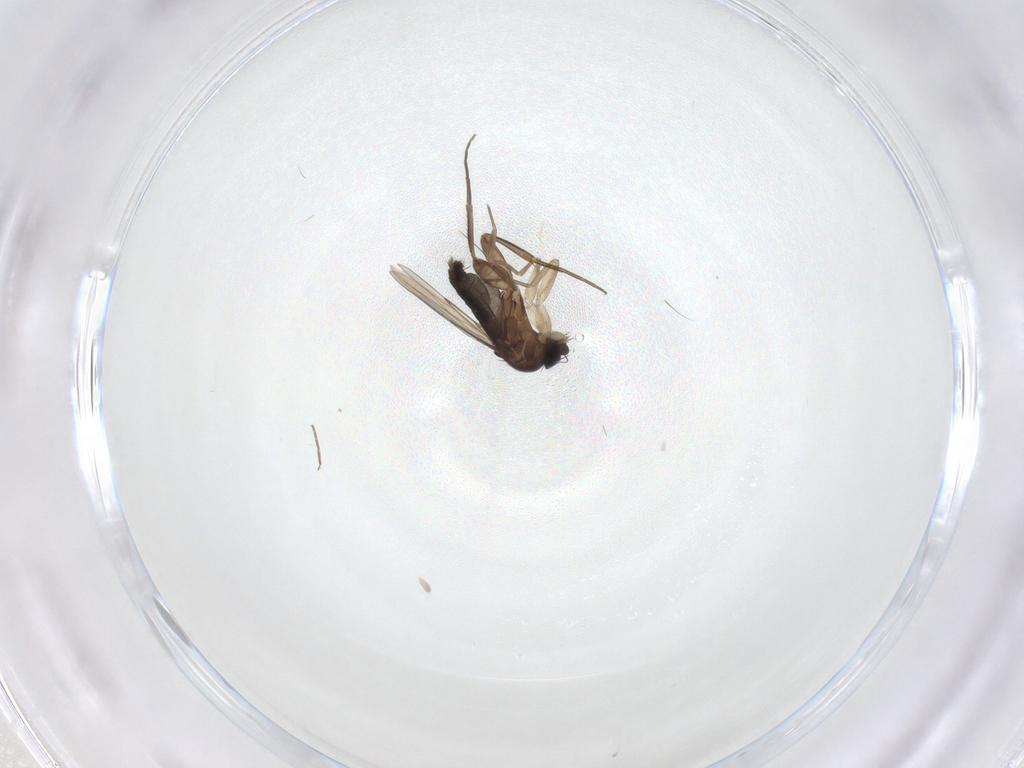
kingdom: Animalia
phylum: Arthropoda
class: Insecta
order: Diptera
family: Phoridae
